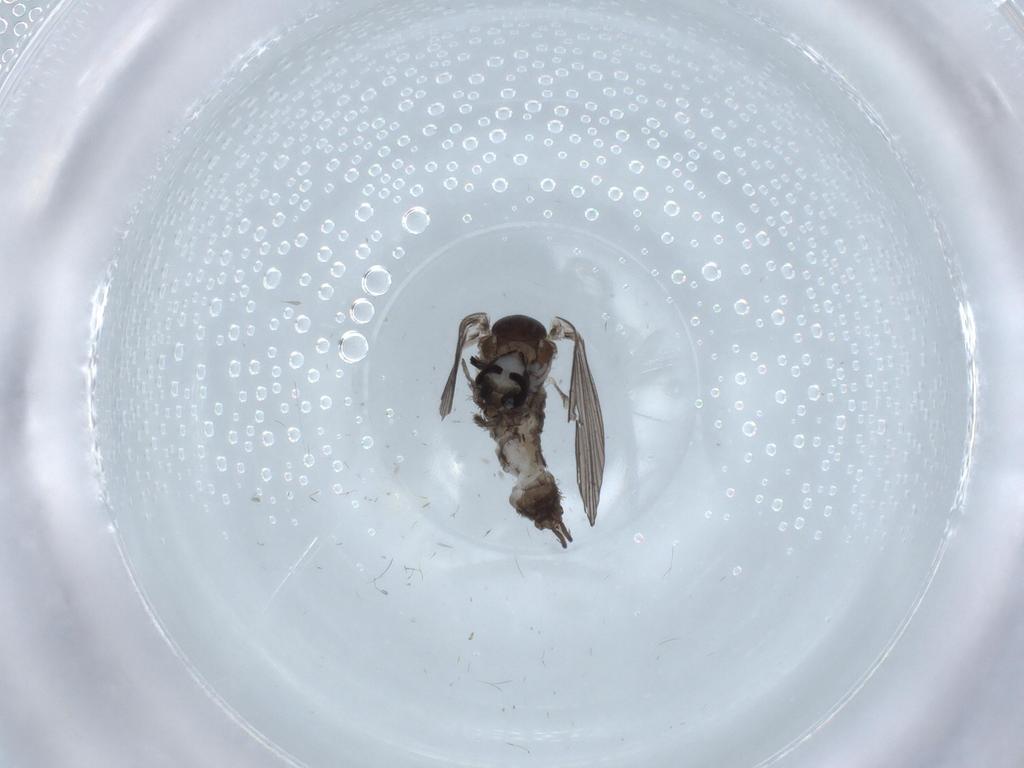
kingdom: Animalia
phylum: Arthropoda
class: Insecta
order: Diptera
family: Psychodidae
